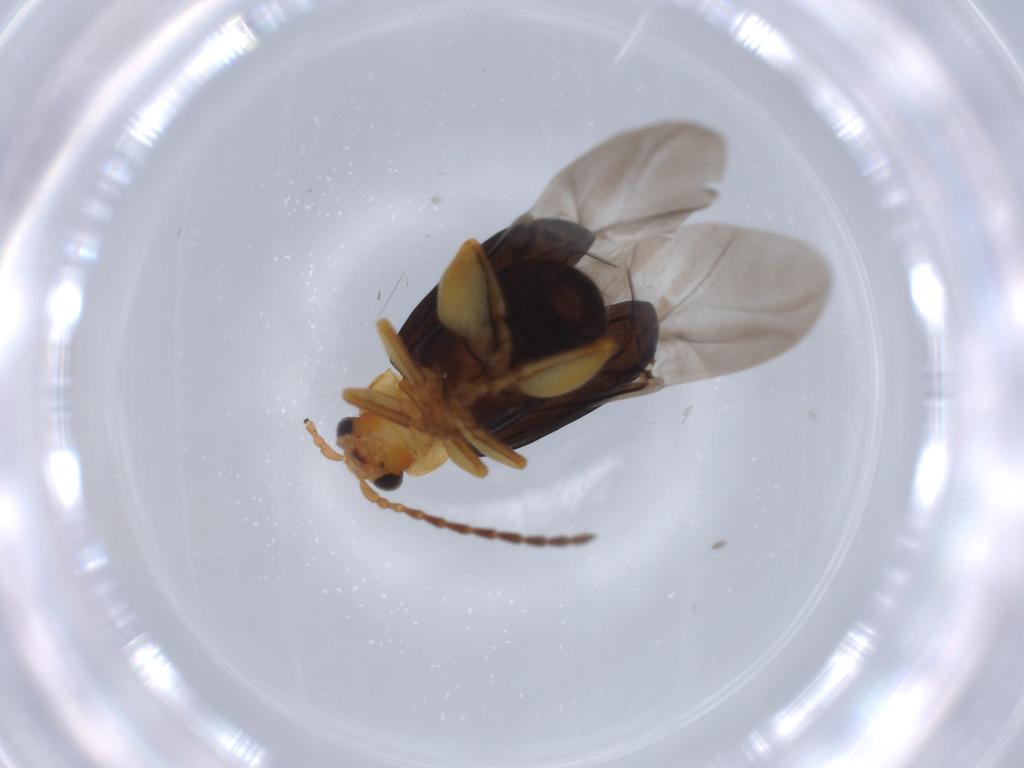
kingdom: Animalia
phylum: Arthropoda
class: Insecta
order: Coleoptera
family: Chrysomelidae
